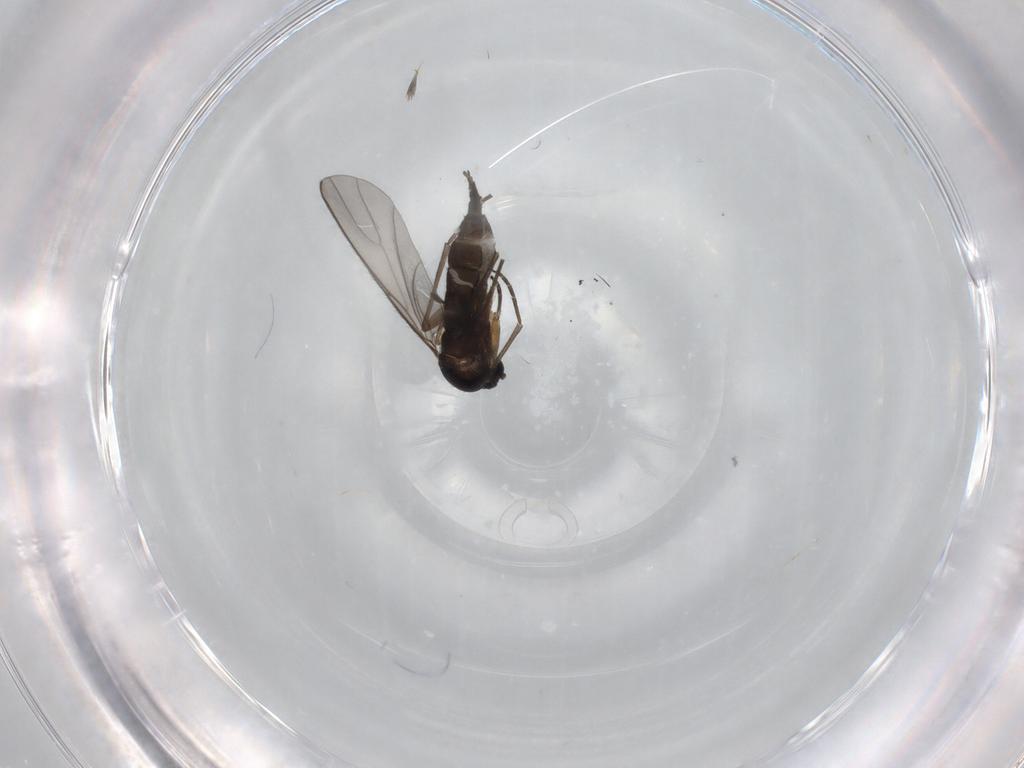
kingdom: Animalia
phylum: Arthropoda
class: Insecta
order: Diptera
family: Sciaridae
